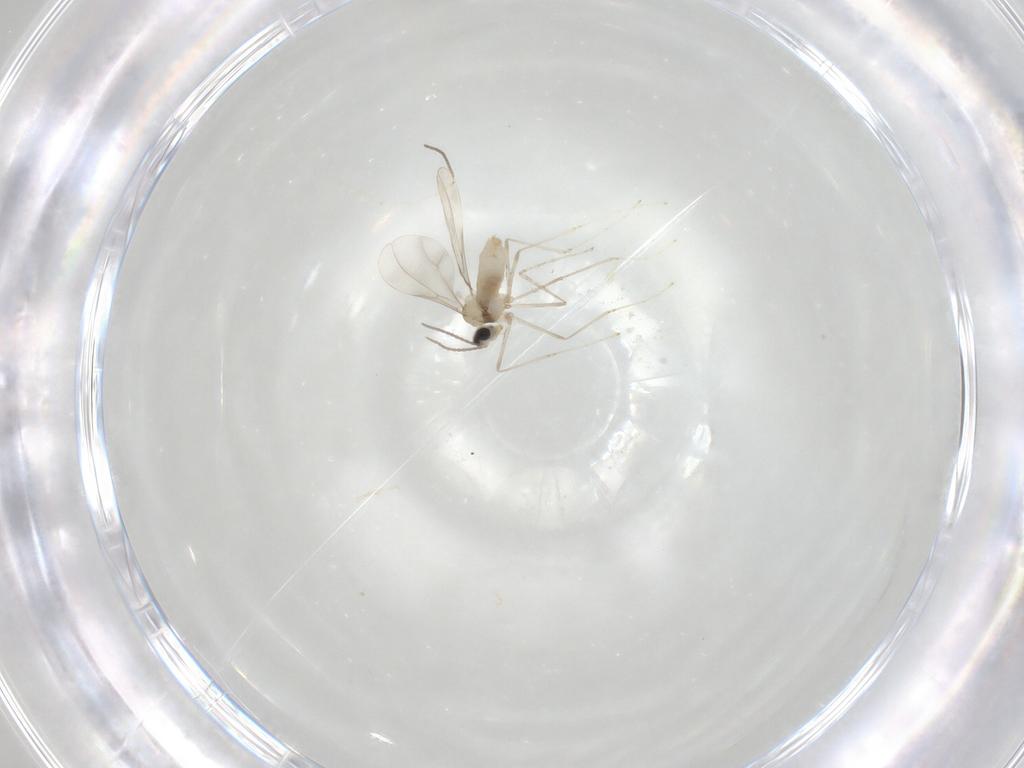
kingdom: Animalia
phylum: Arthropoda
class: Insecta
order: Diptera
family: Cecidomyiidae
